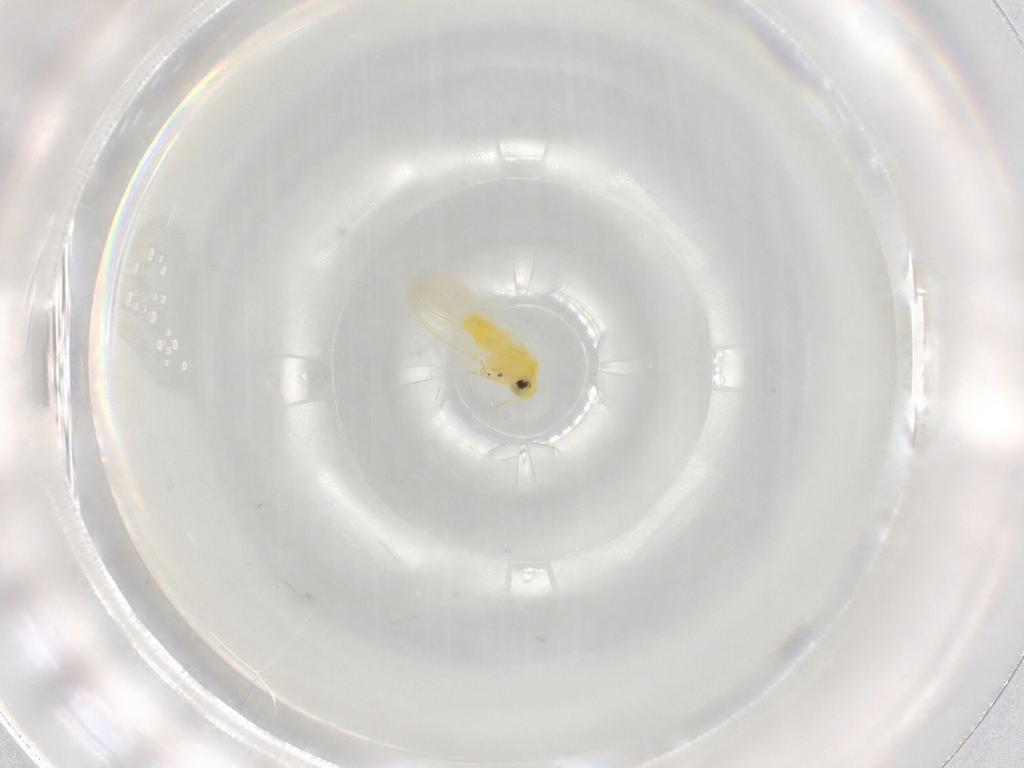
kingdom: Animalia
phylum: Arthropoda
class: Insecta
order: Hemiptera
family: Aleyrodidae
